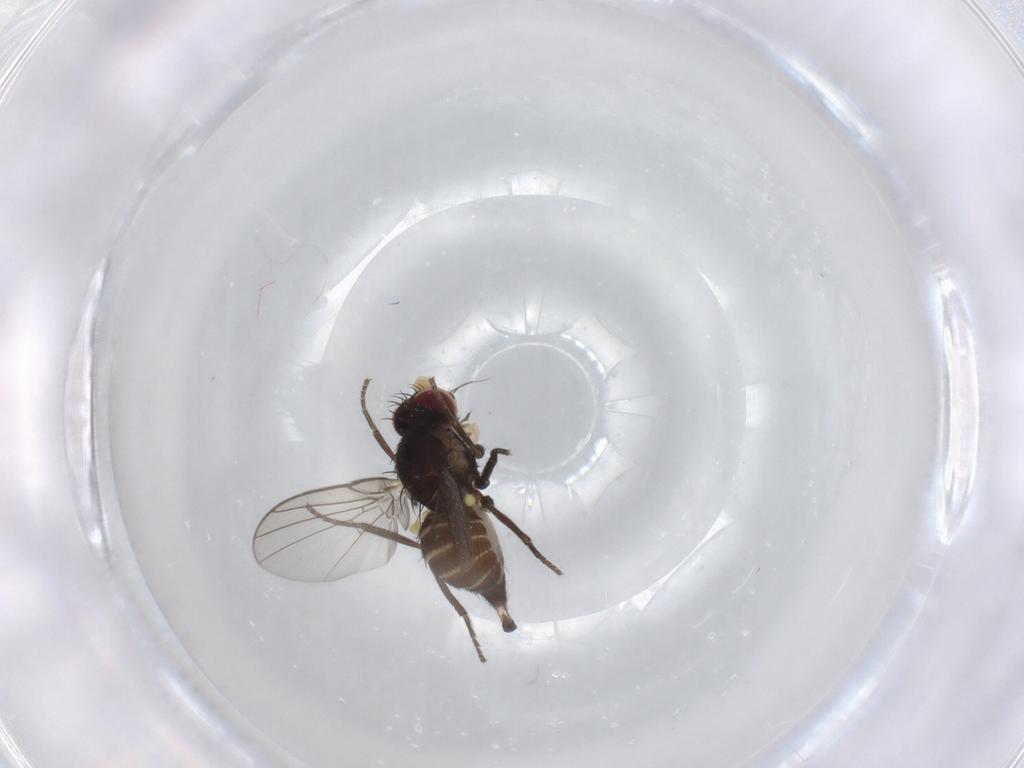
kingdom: Animalia
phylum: Arthropoda
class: Insecta
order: Diptera
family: Agromyzidae
